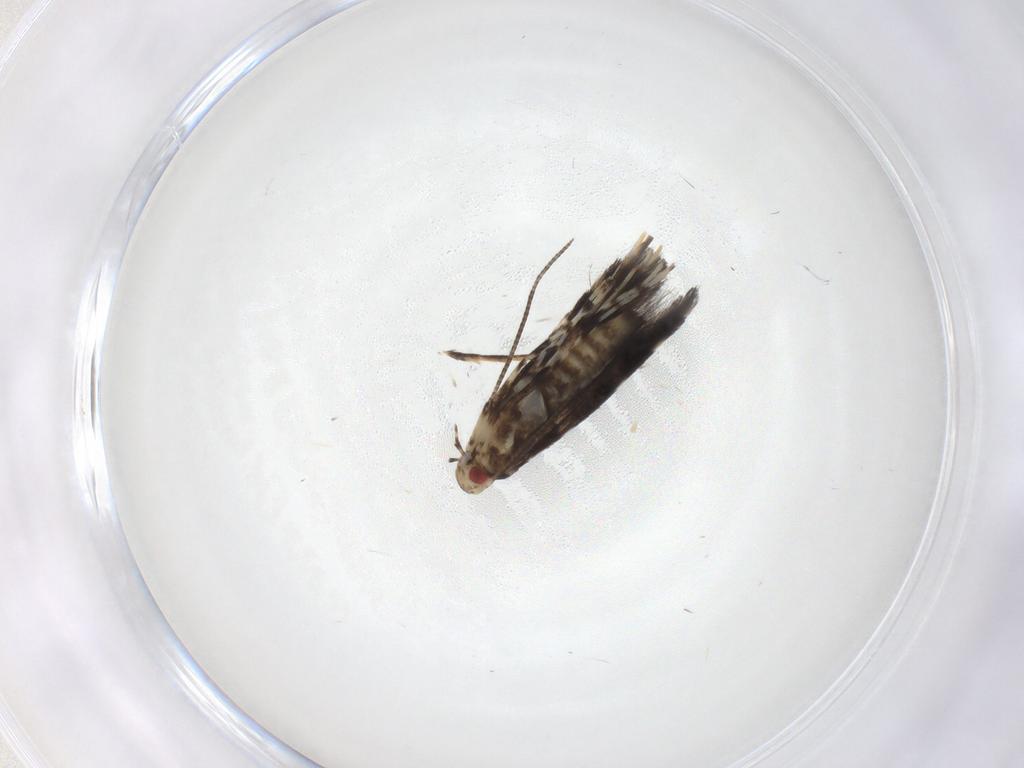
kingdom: Animalia
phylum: Arthropoda
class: Insecta
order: Lepidoptera
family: Gracillariidae
